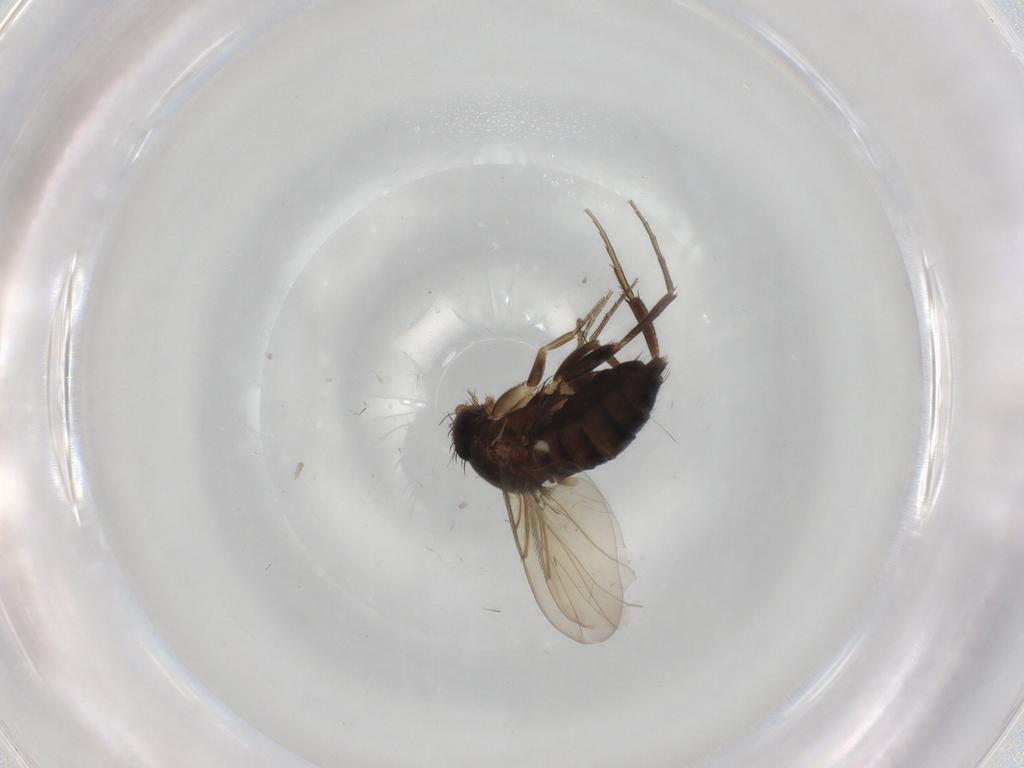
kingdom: Animalia
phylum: Arthropoda
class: Insecta
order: Diptera
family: Phoridae
